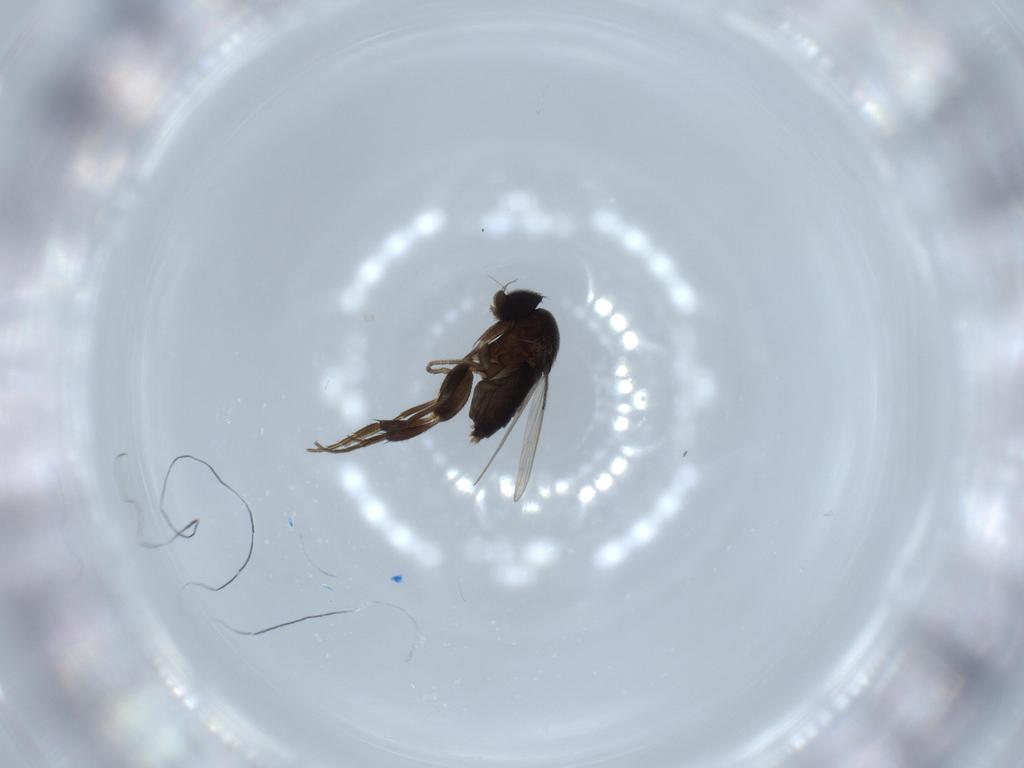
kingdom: Animalia
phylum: Arthropoda
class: Insecta
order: Diptera
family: Phoridae
